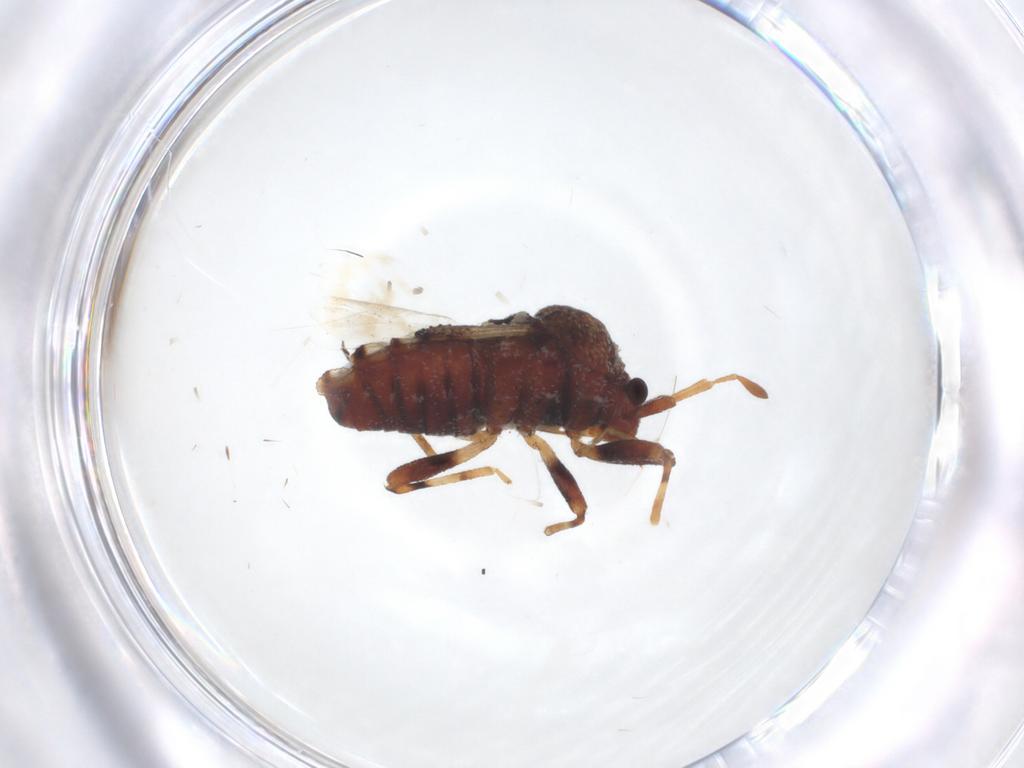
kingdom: Animalia
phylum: Arthropoda
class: Insecta
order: Hemiptera
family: Malcidae
